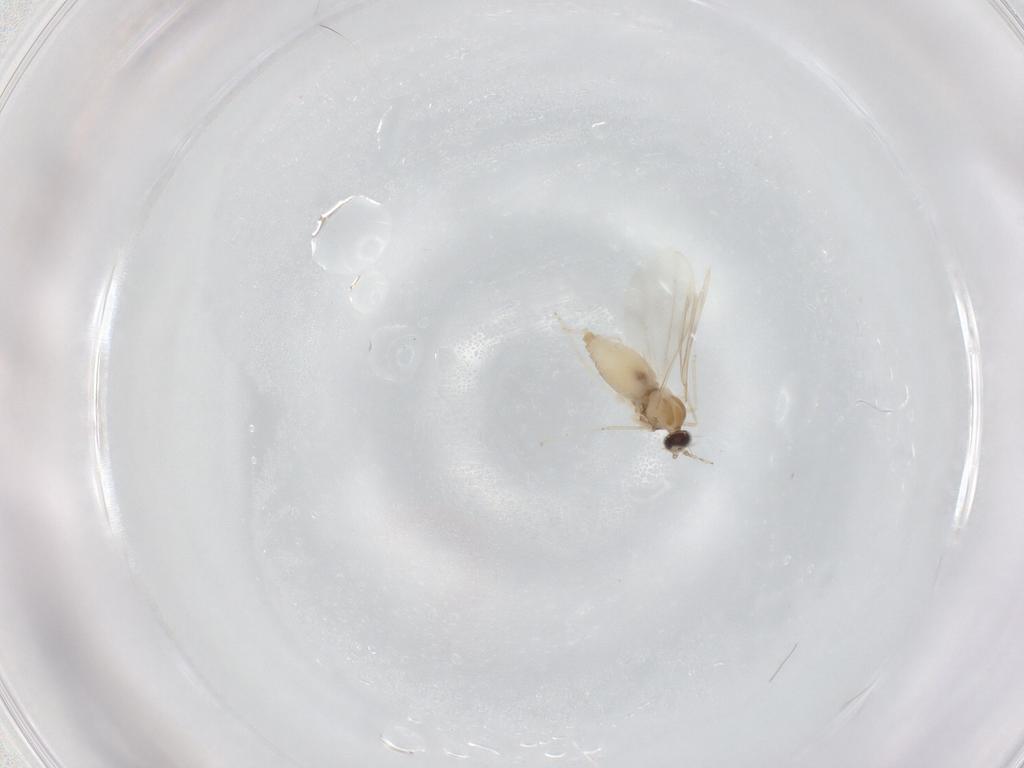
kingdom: Animalia
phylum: Arthropoda
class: Insecta
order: Diptera
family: Cecidomyiidae
